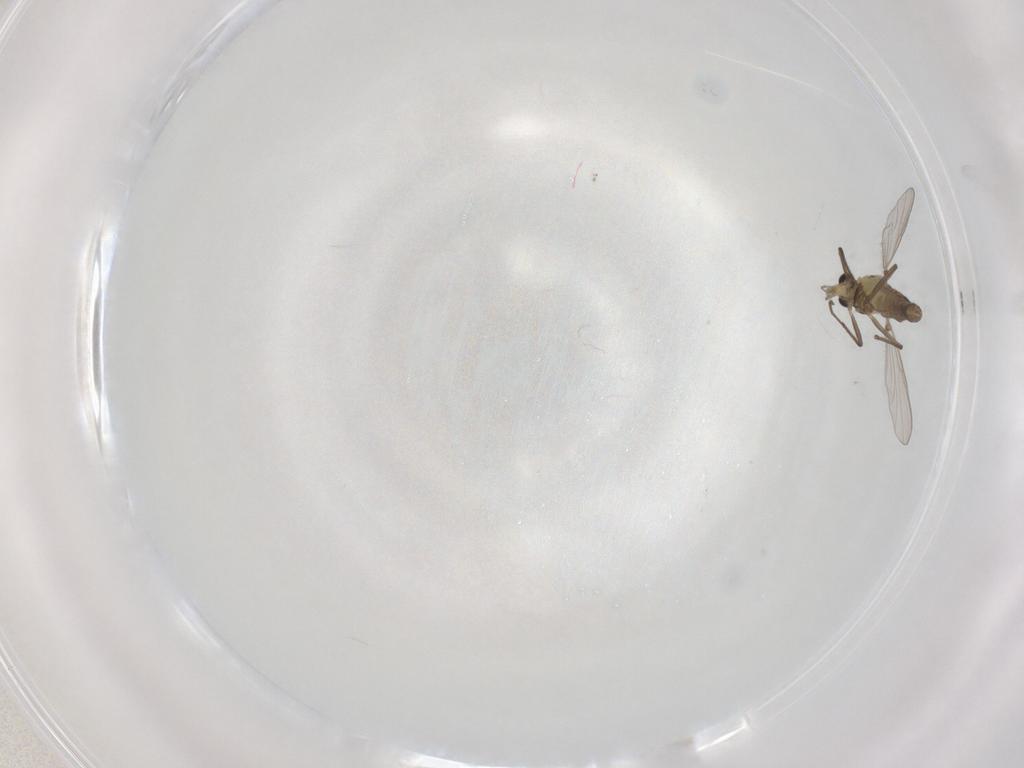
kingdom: Animalia
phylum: Arthropoda
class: Insecta
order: Diptera
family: Chironomidae
